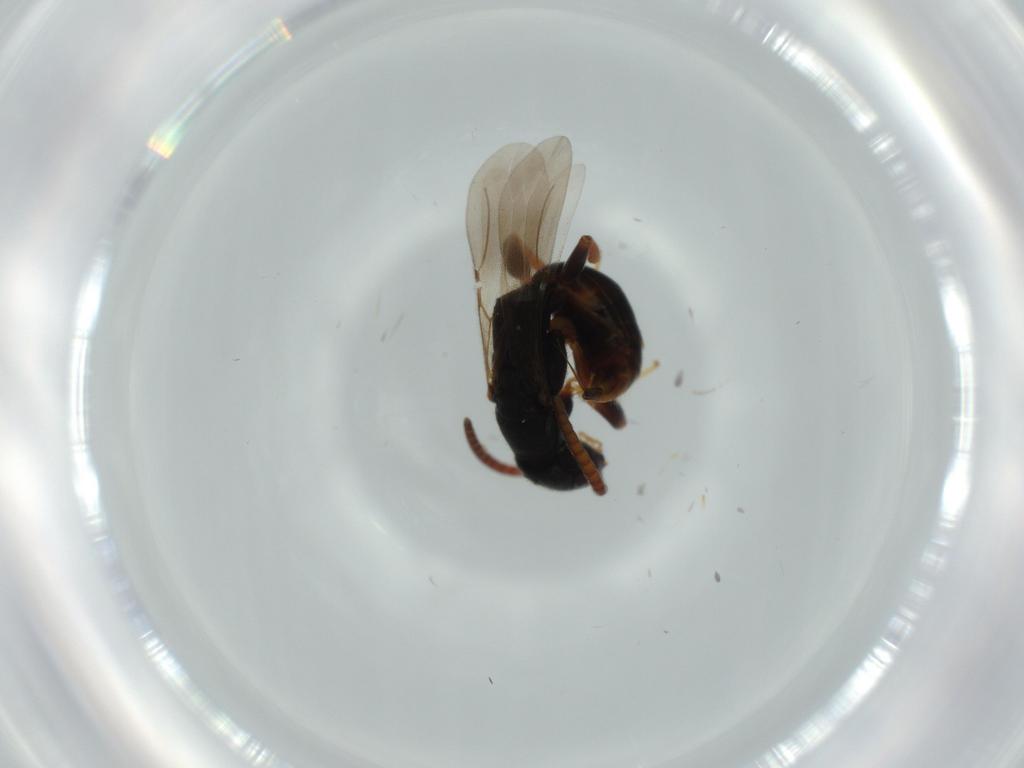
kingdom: Animalia
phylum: Arthropoda
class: Insecta
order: Hymenoptera
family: Bethylidae
